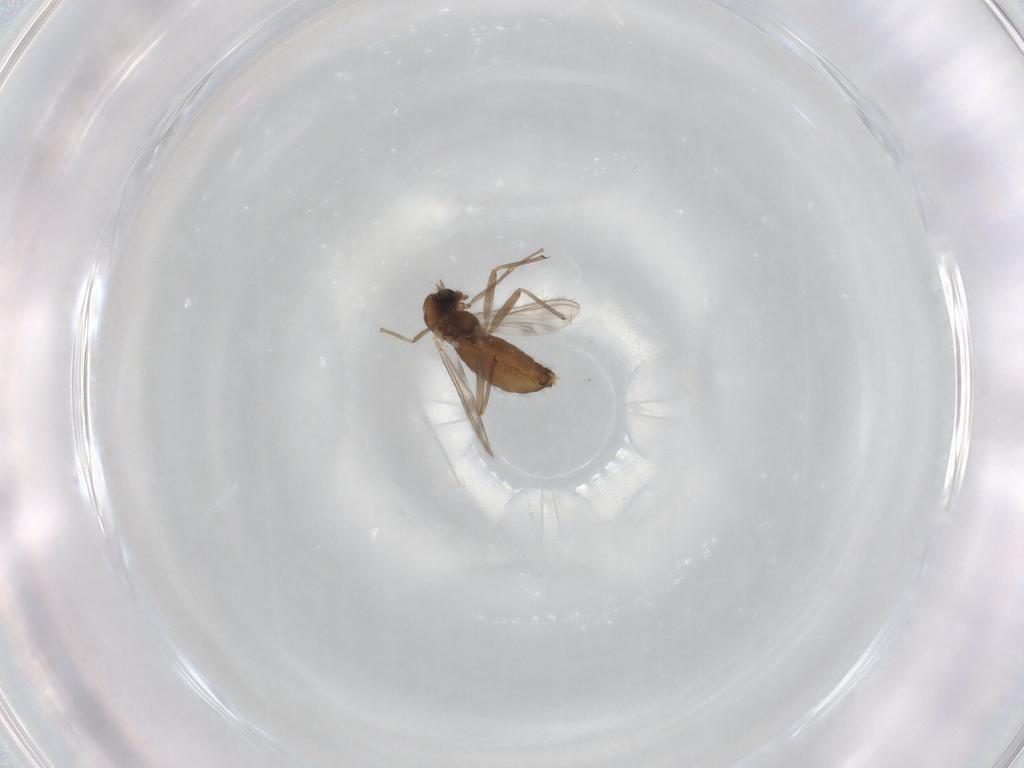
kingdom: Animalia
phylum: Arthropoda
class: Insecta
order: Diptera
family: Chironomidae
